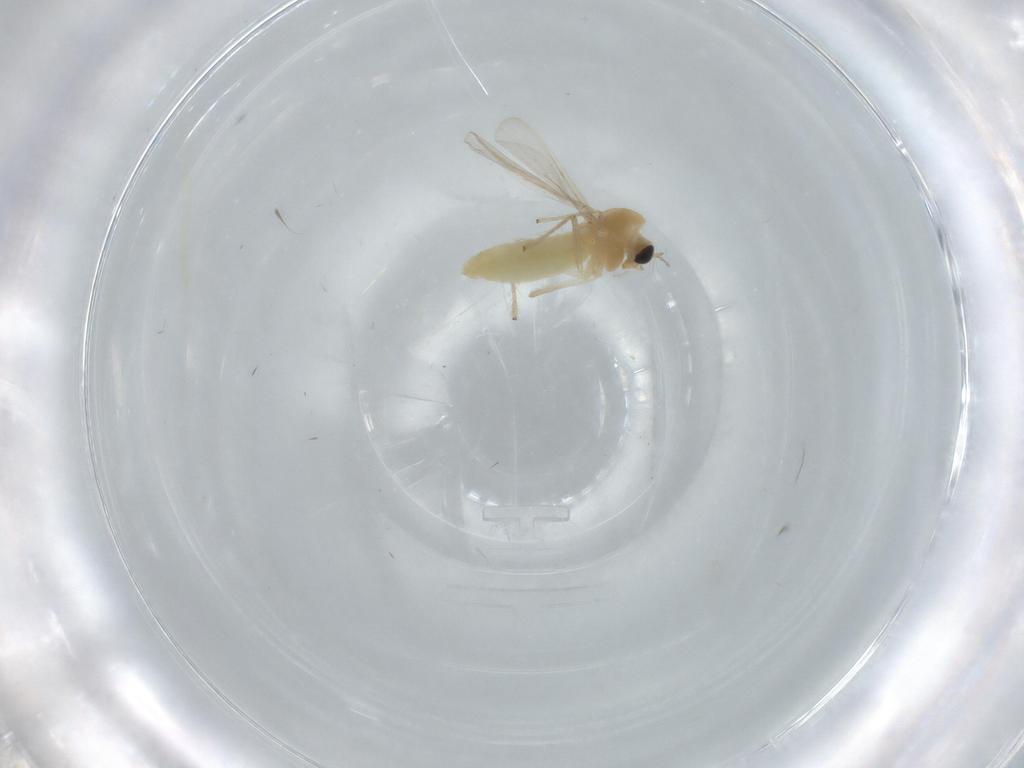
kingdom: Animalia
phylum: Arthropoda
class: Insecta
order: Diptera
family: Chironomidae
